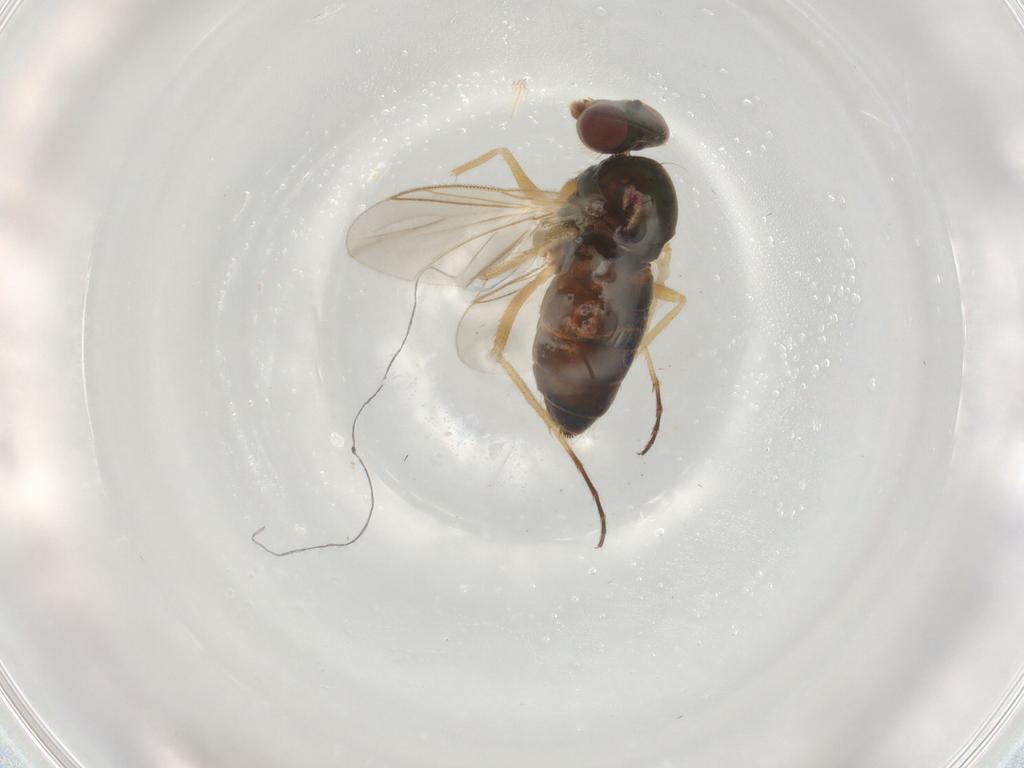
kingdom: Animalia
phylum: Arthropoda
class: Insecta
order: Diptera
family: Dolichopodidae
